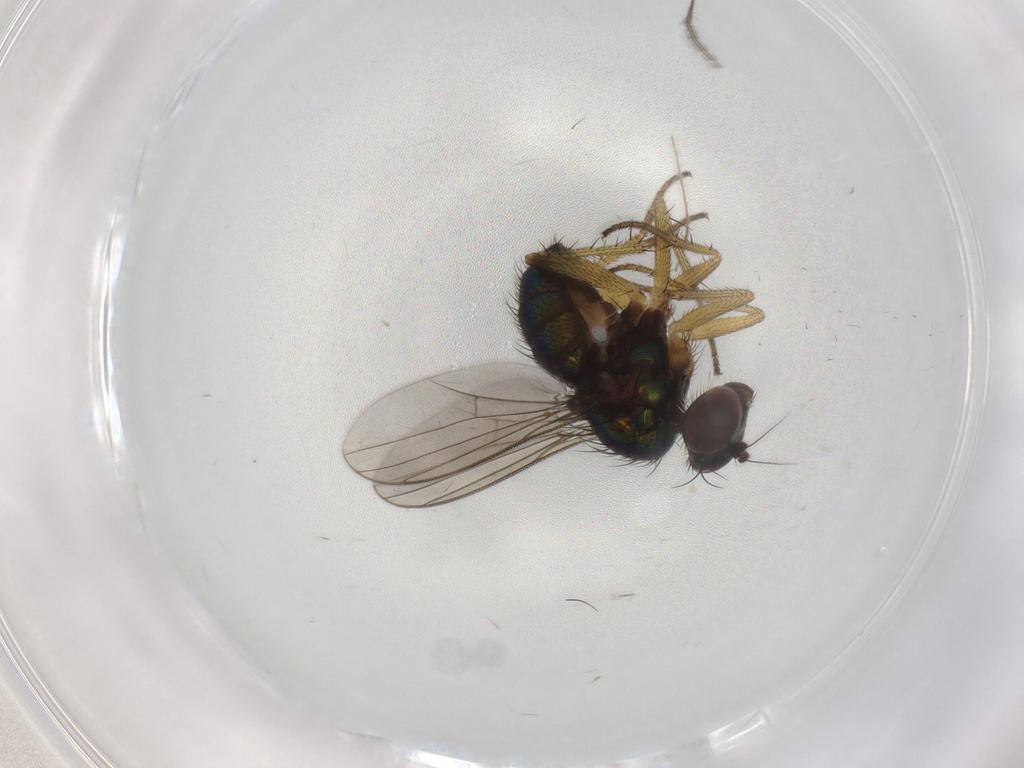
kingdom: Animalia
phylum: Arthropoda
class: Insecta
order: Diptera
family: Dolichopodidae
